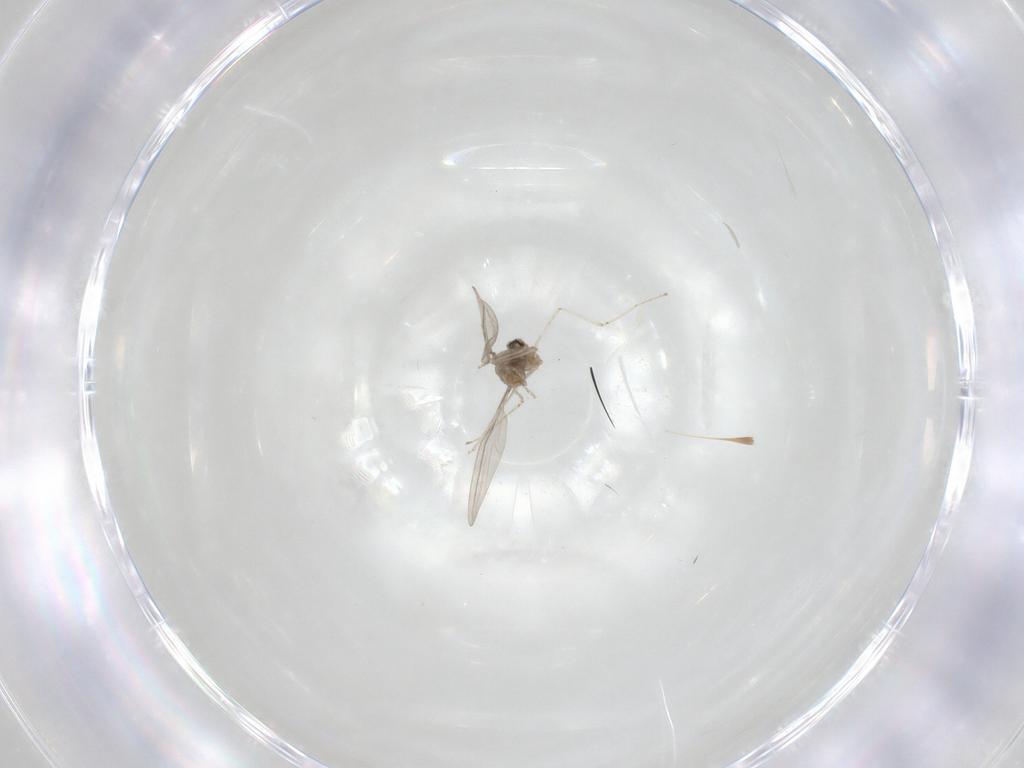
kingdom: Animalia
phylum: Arthropoda
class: Insecta
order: Diptera
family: Cecidomyiidae
